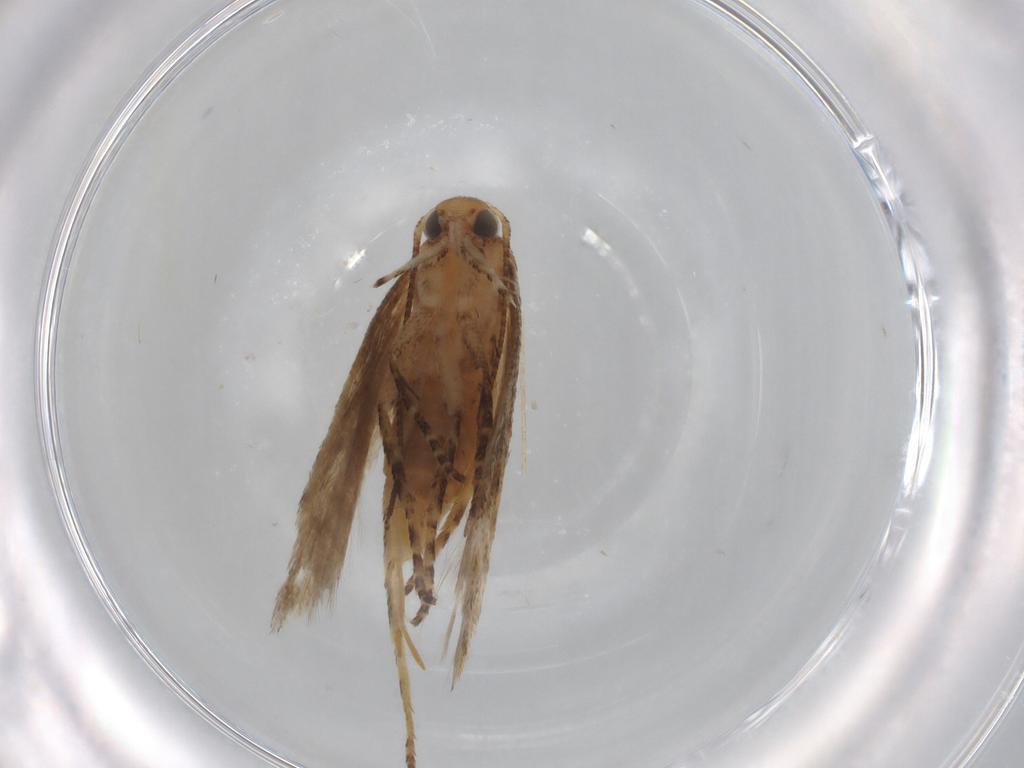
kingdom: Animalia
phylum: Arthropoda
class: Insecta
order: Lepidoptera
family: Gelechiidae
